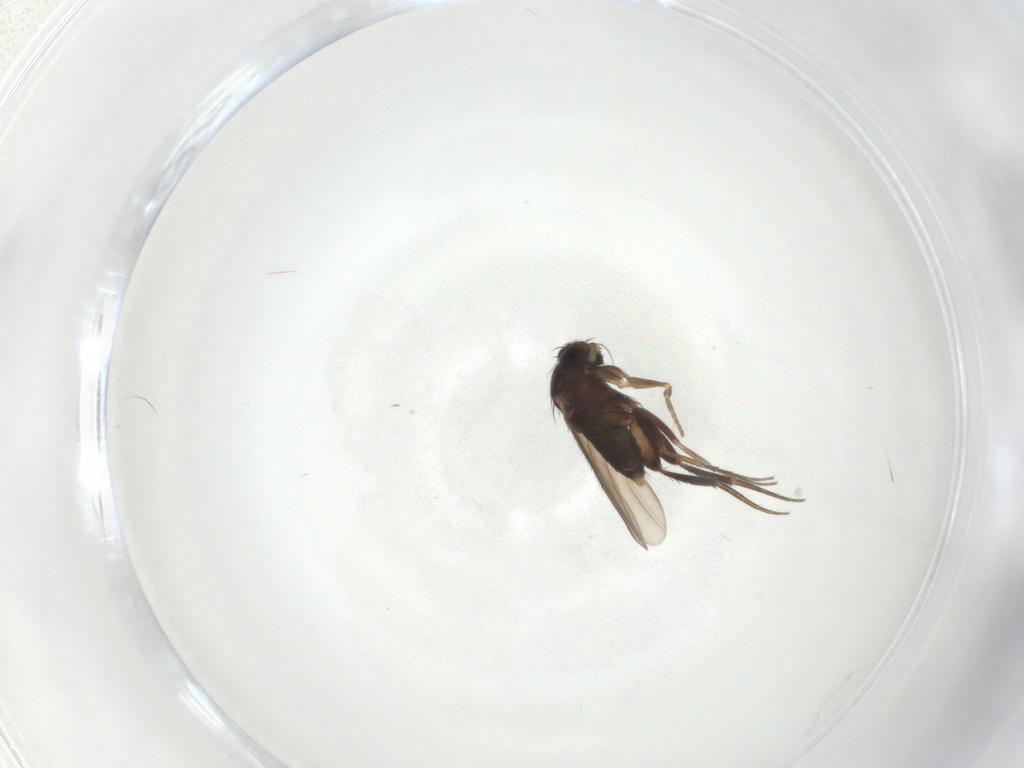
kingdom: Animalia
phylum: Arthropoda
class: Insecta
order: Diptera
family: Phoridae
